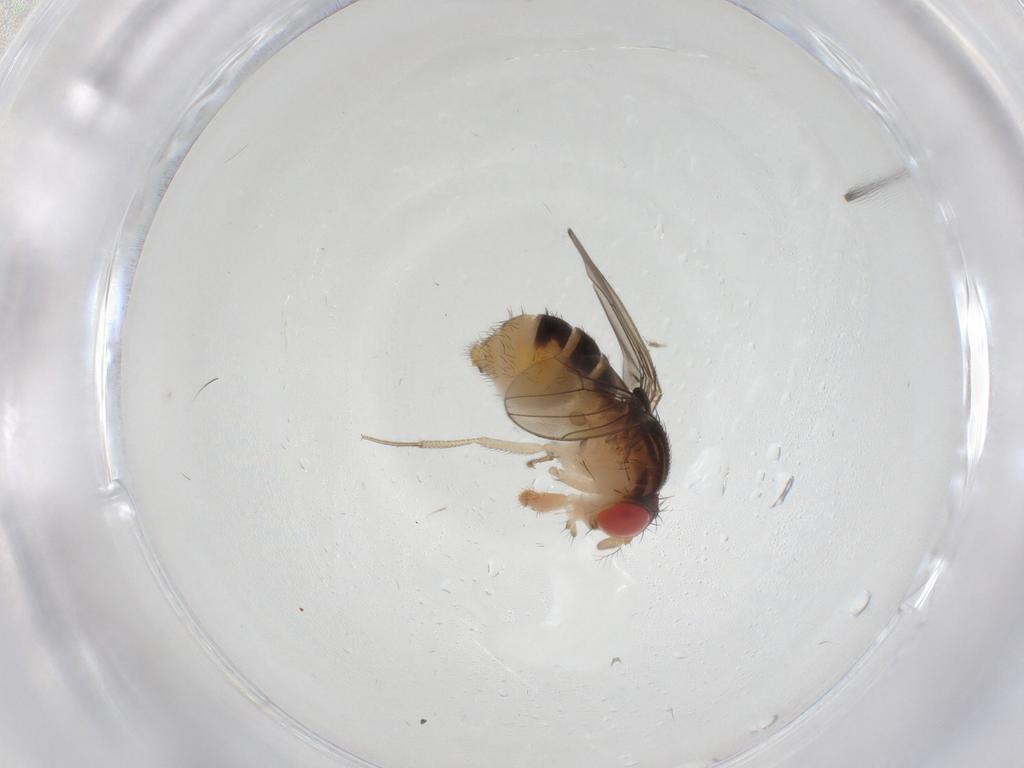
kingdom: Animalia
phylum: Arthropoda
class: Insecta
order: Diptera
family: Drosophilidae
